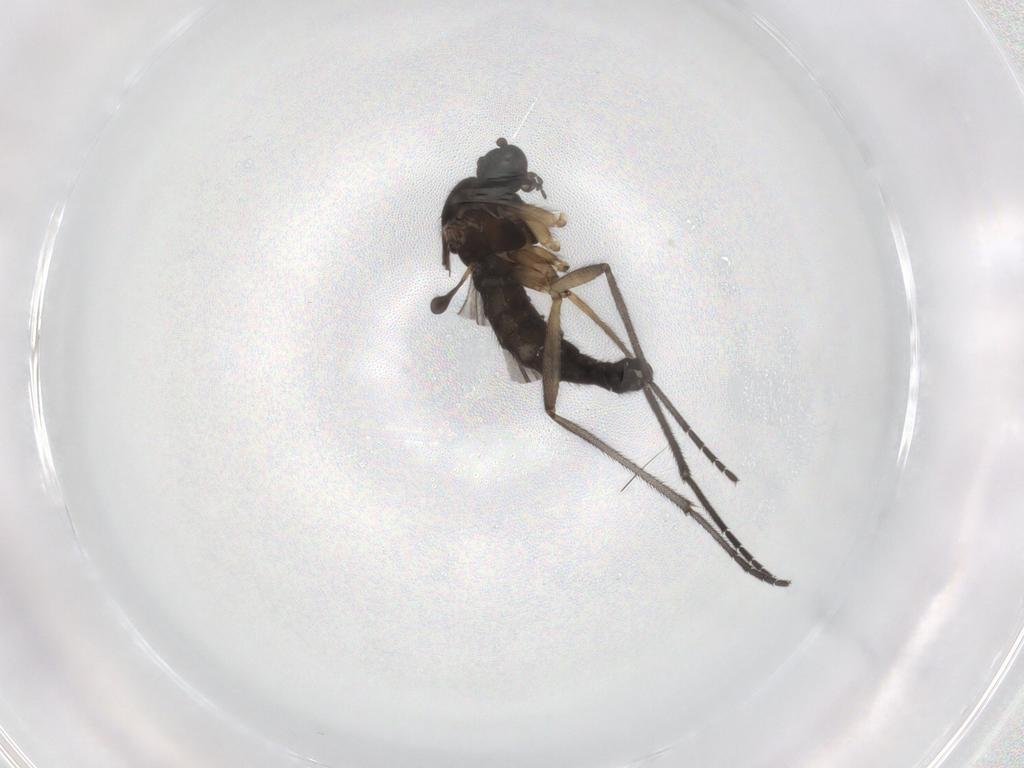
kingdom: Animalia
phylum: Arthropoda
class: Insecta
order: Diptera
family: Sciaridae
